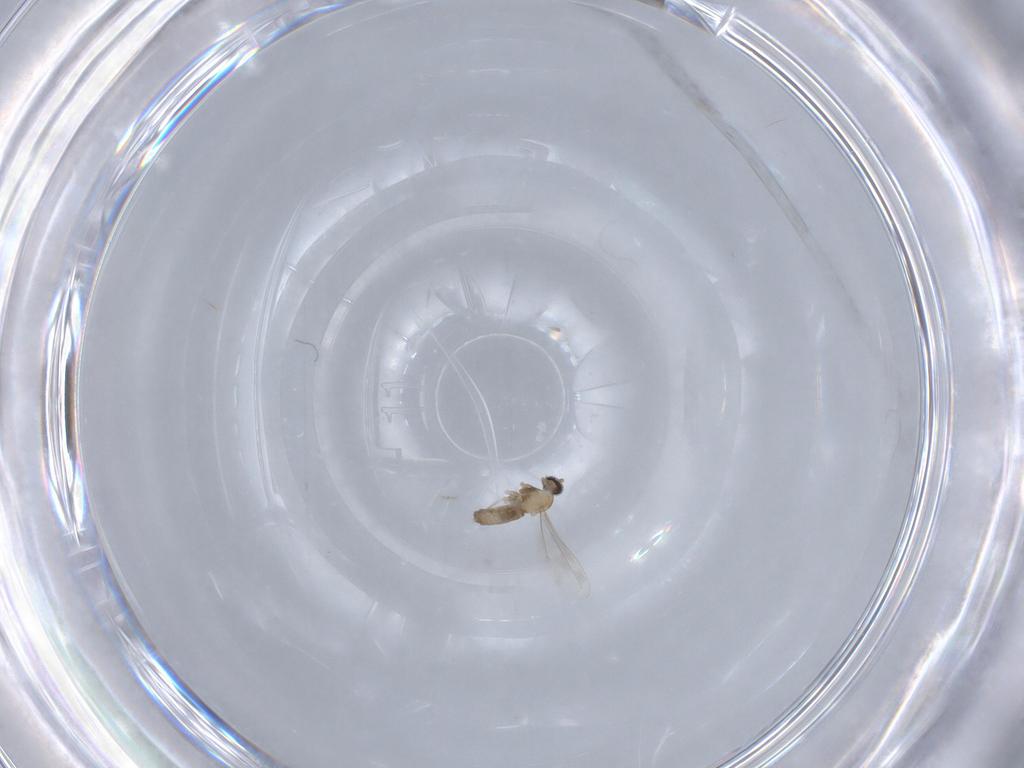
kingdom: Animalia
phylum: Arthropoda
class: Insecta
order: Diptera
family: Cecidomyiidae
